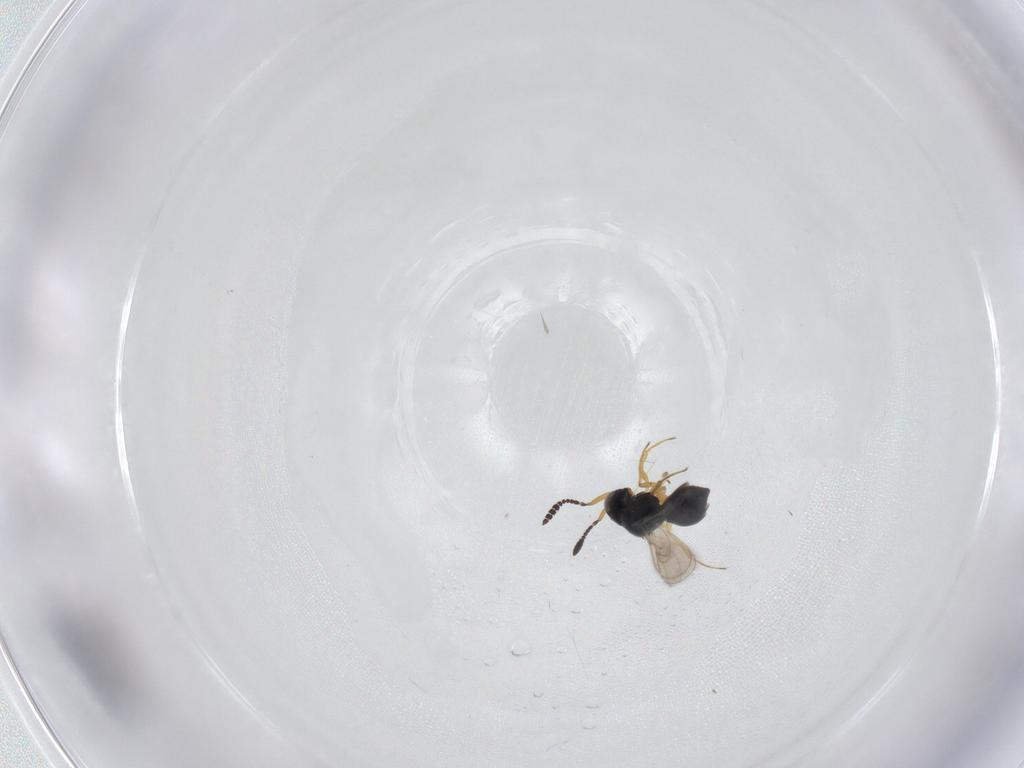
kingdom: Animalia
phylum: Arthropoda
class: Insecta
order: Hymenoptera
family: Scelionidae
